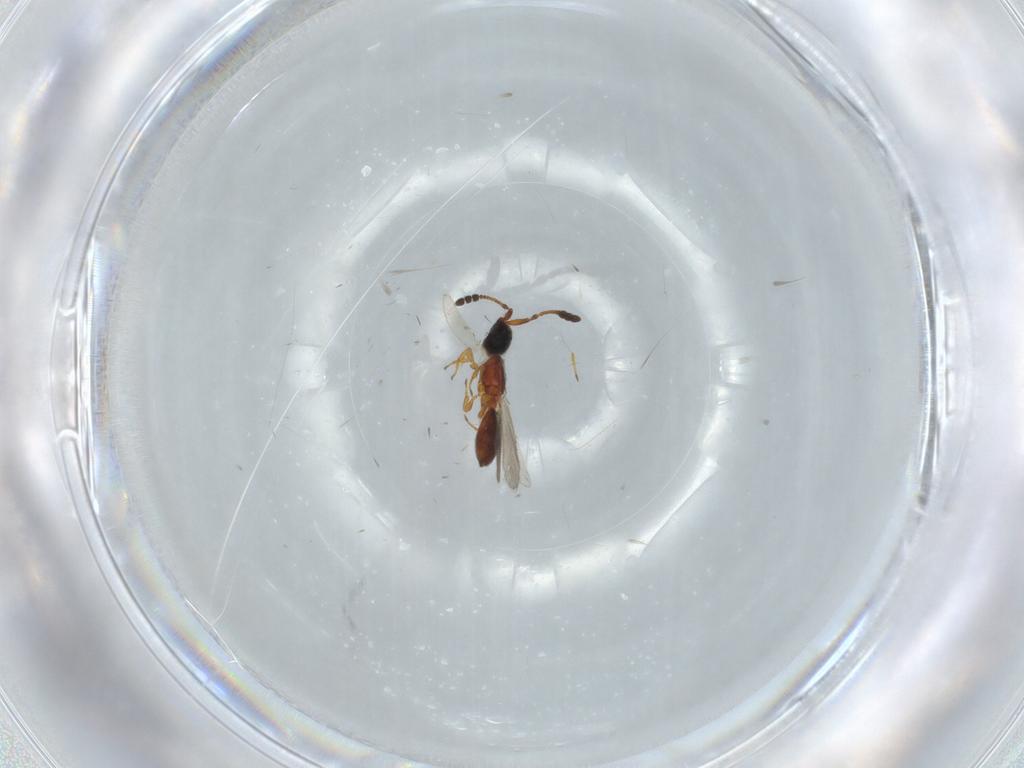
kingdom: Animalia
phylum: Arthropoda
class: Insecta
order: Hymenoptera
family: Diapriidae
